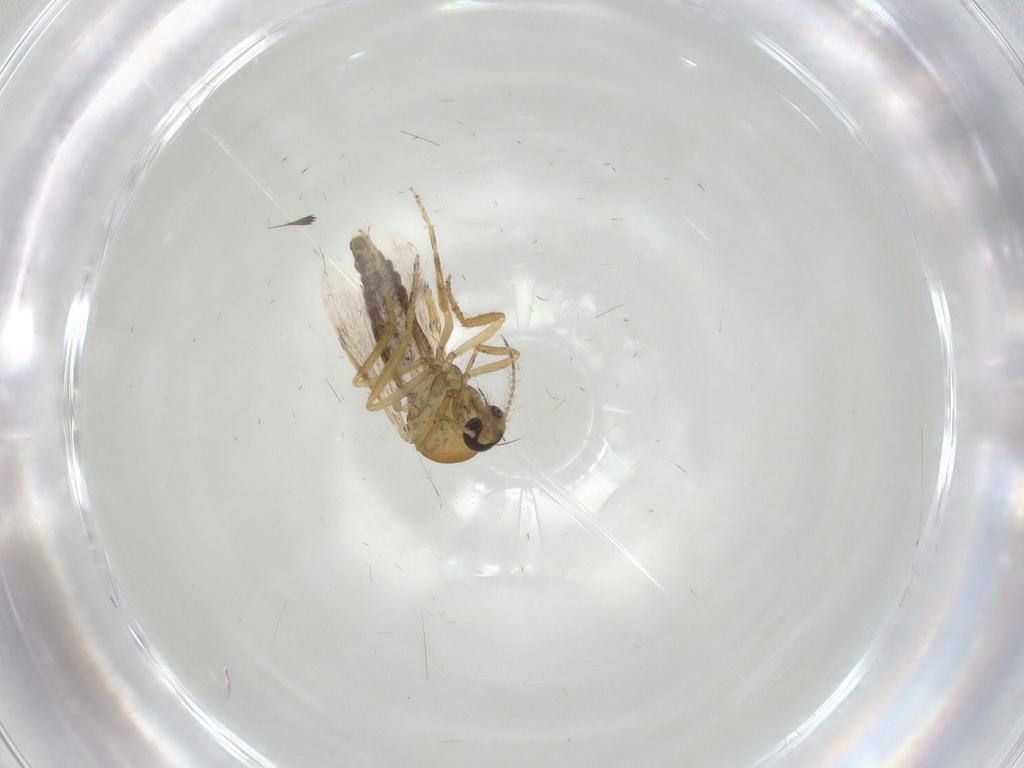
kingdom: Animalia
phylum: Arthropoda
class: Insecta
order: Diptera
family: Ceratopogonidae
